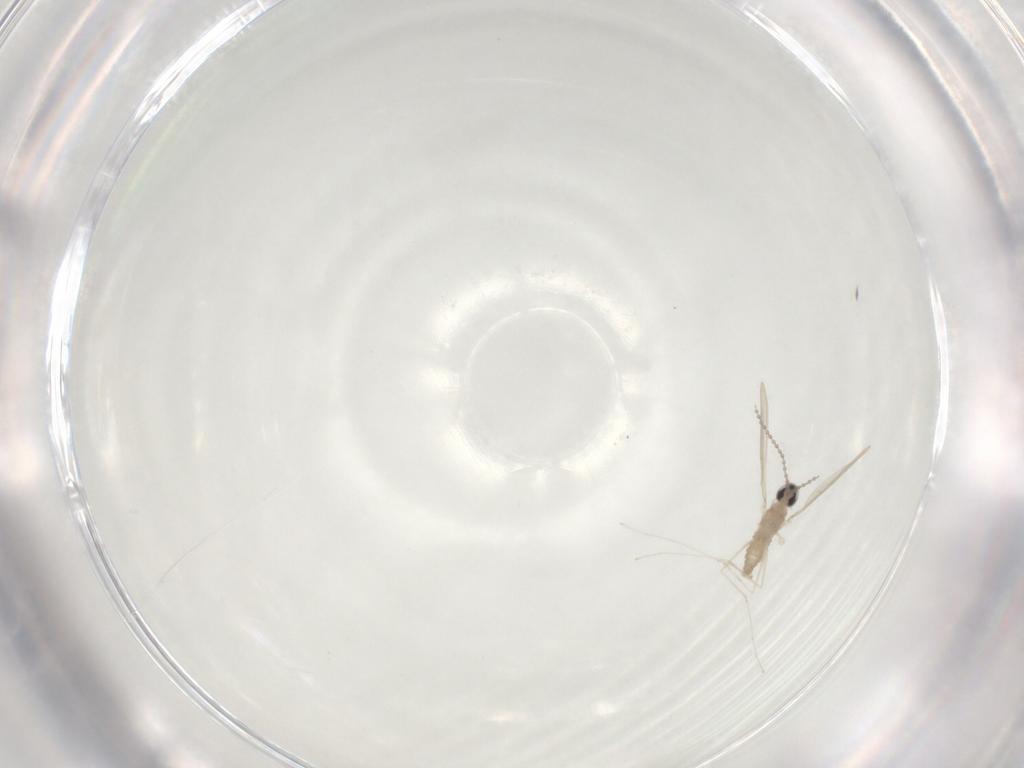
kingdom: Animalia
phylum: Arthropoda
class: Insecta
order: Diptera
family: Cecidomyiidae
